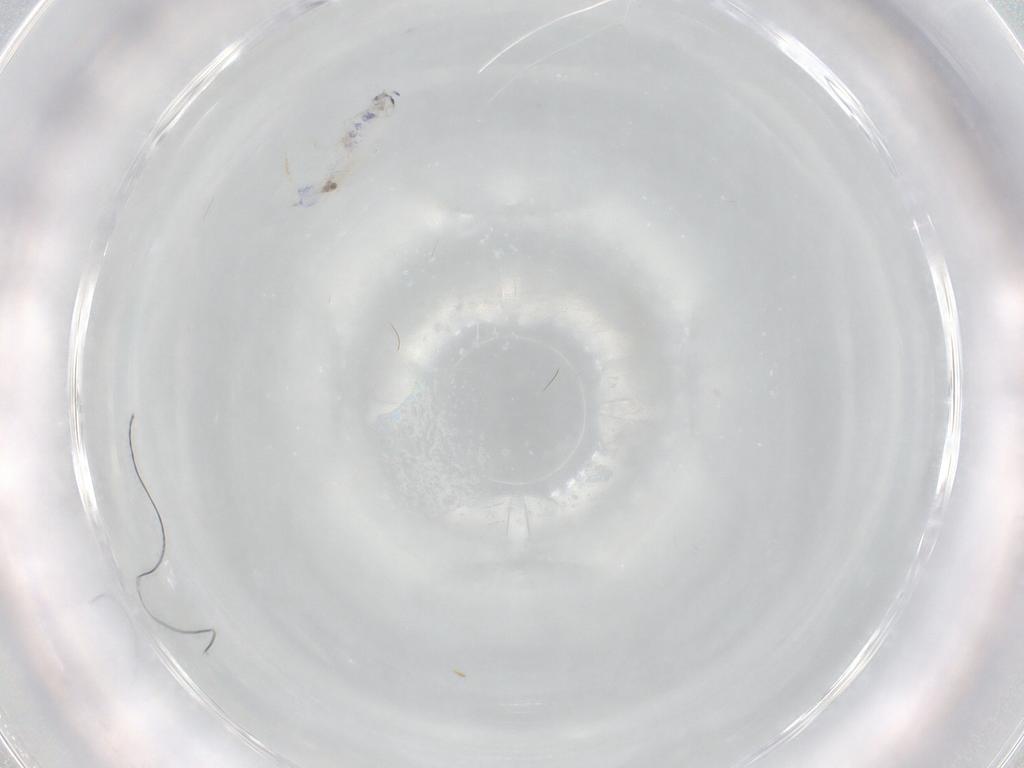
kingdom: Animalia
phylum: Arthropoda
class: Collembola
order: Entomobryomorpha
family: Entomobryidae
